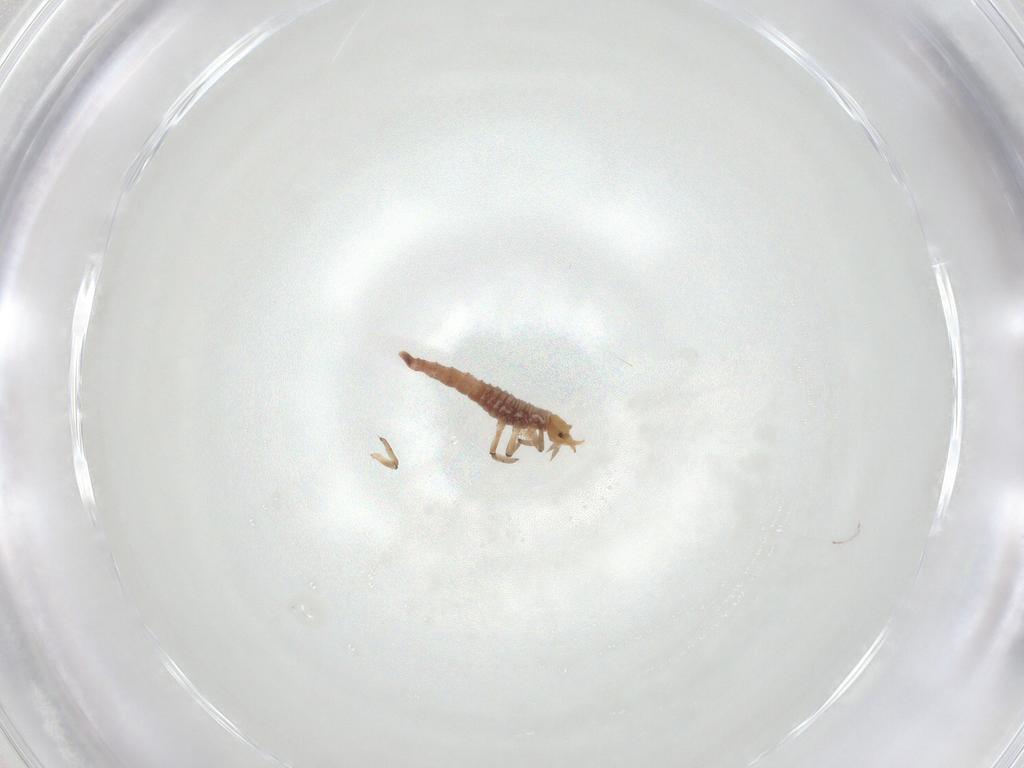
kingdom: Animalia
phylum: Arthropoda
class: Insecta
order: Neuroptera
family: Hemerobiidae
